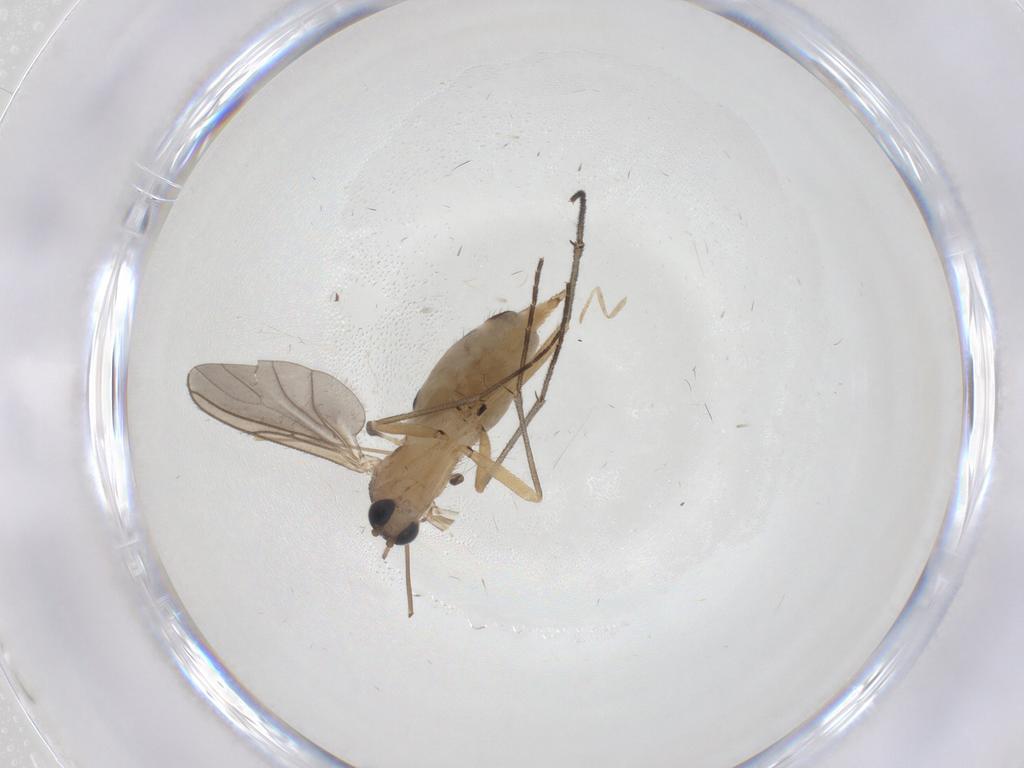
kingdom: Animalia
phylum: Arthropoda
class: Insecta
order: Diptera
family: Sciaridae
